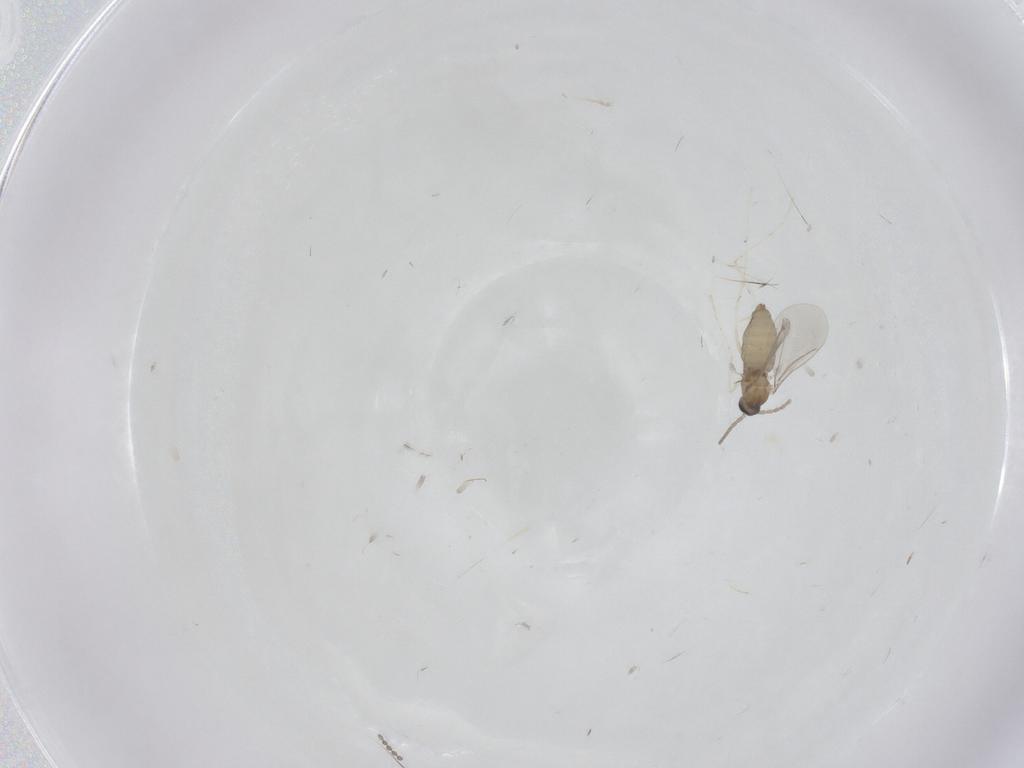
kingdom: Animalia
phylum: Arthropoda
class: Insecta
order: Diptera
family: Cecidomyiidae
